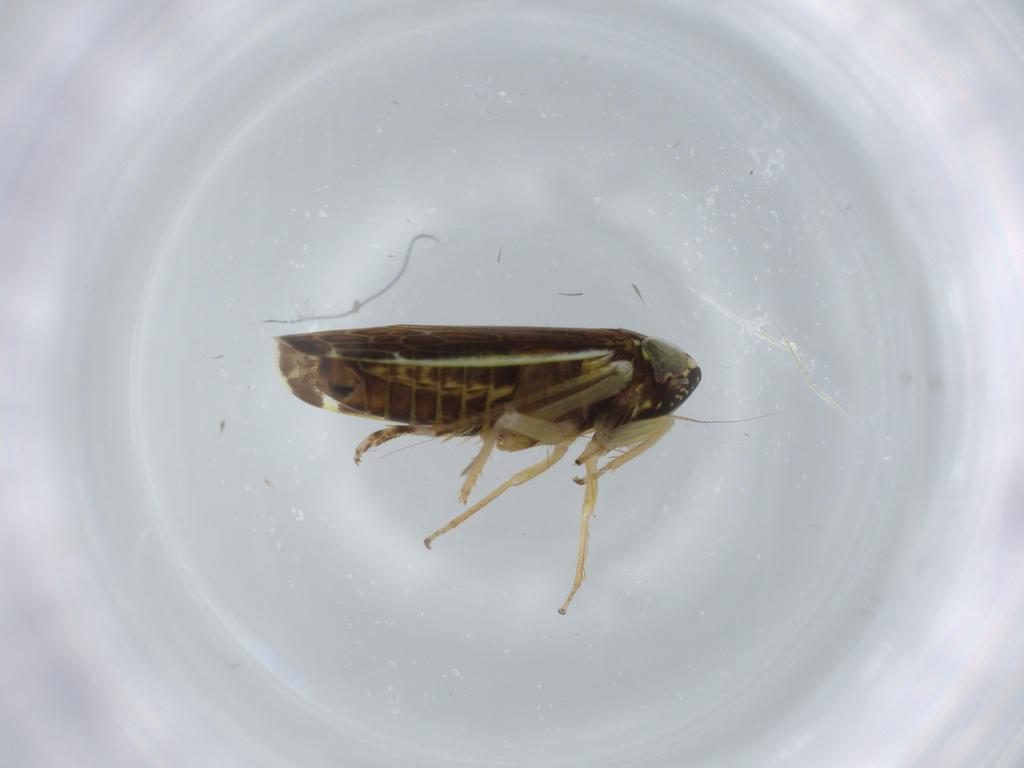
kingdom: Animalia
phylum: Arthropoda
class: Insecta
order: Hemiptera
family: Cicadellidae
